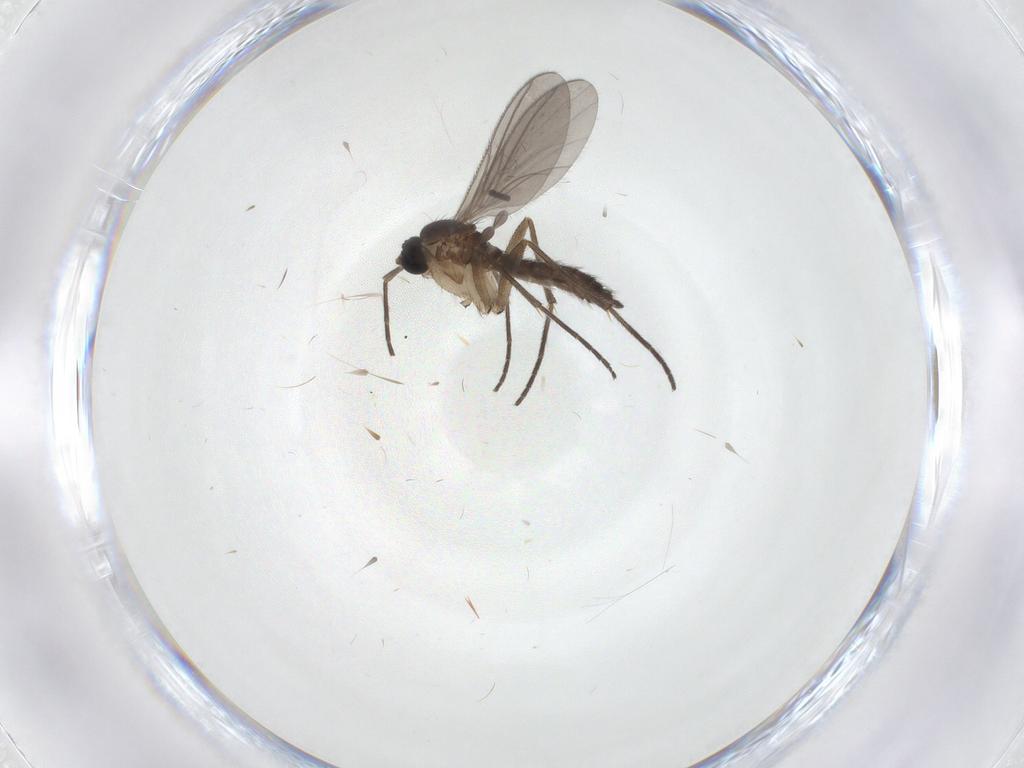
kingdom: Animalia
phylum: Arthropoda
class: Insecta
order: Diptera
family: Sciaridae
